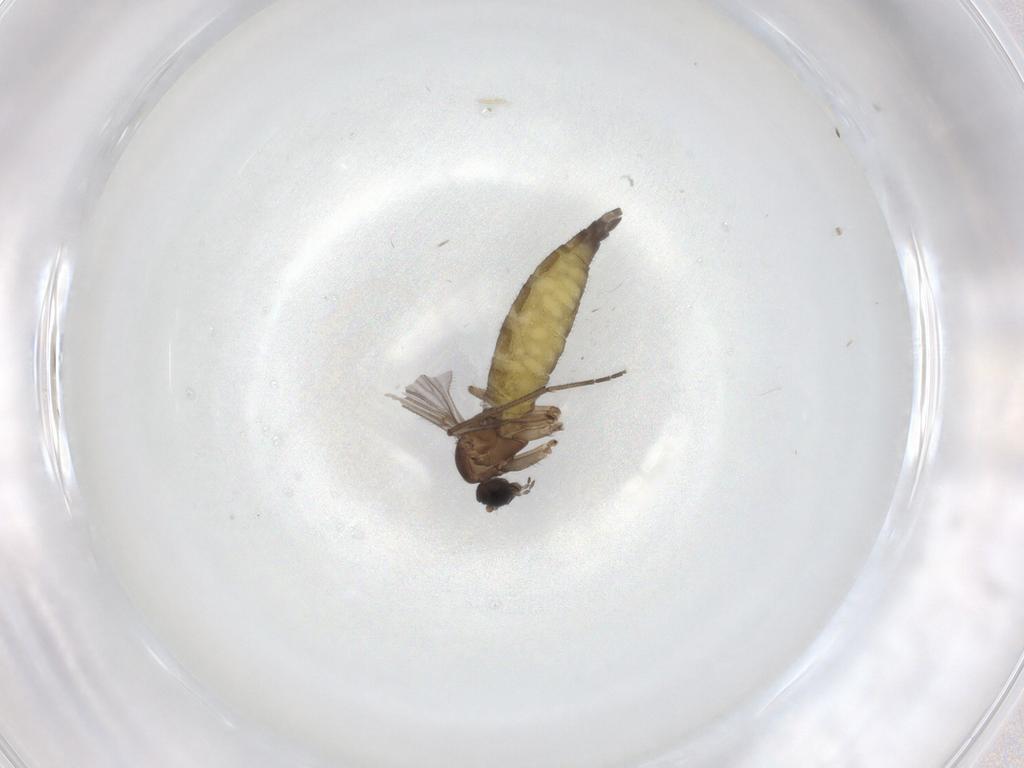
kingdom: Animalia
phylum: Arthropoda
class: Insecta
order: Diptera
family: Sciaridae
